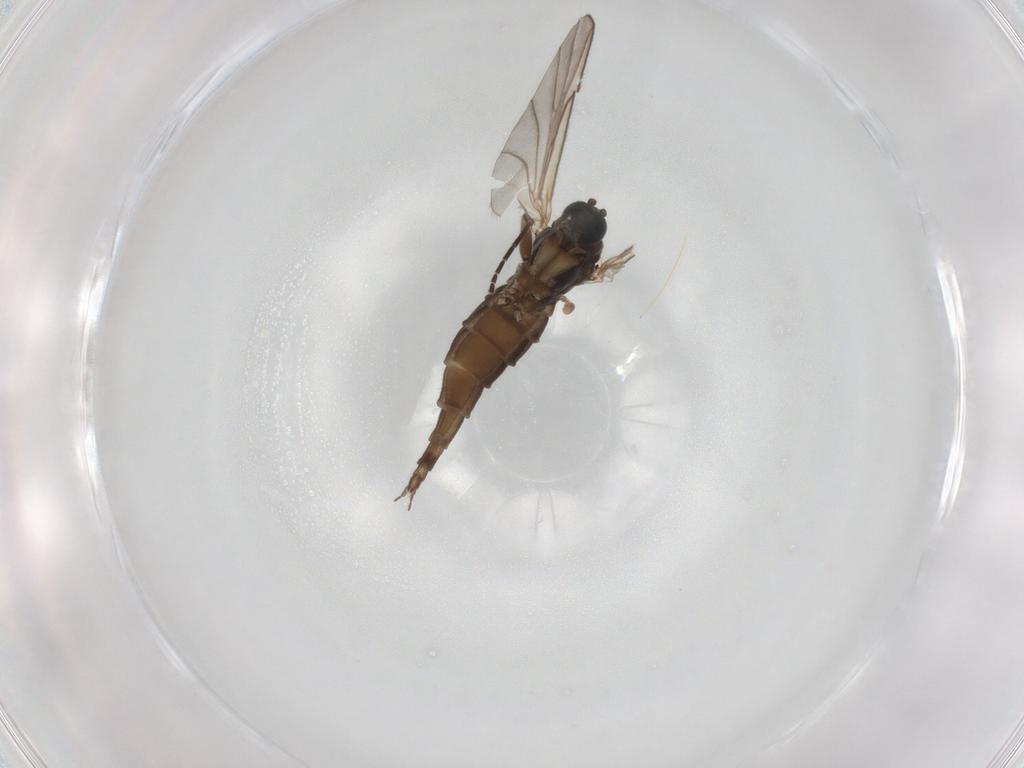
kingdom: Animalia
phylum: Arthropoda
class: Insecta
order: Diptera
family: Sciaridae
